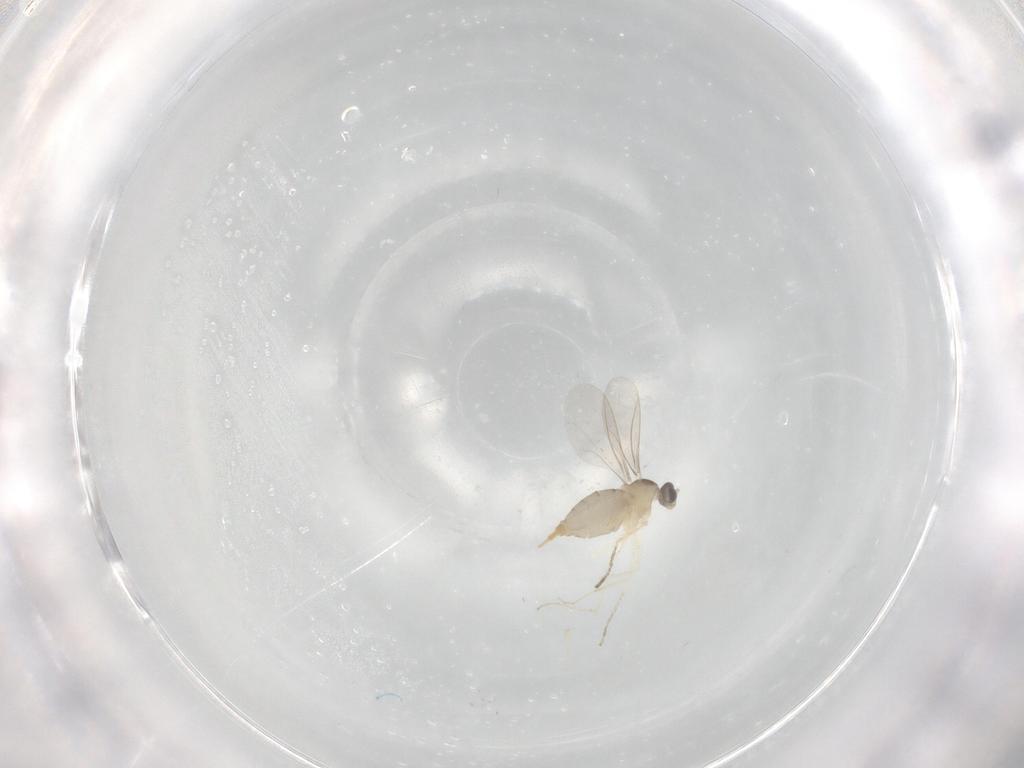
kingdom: Animalia
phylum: Arthropoda
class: Insecta
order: Diptera
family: Cecidomyiidae
